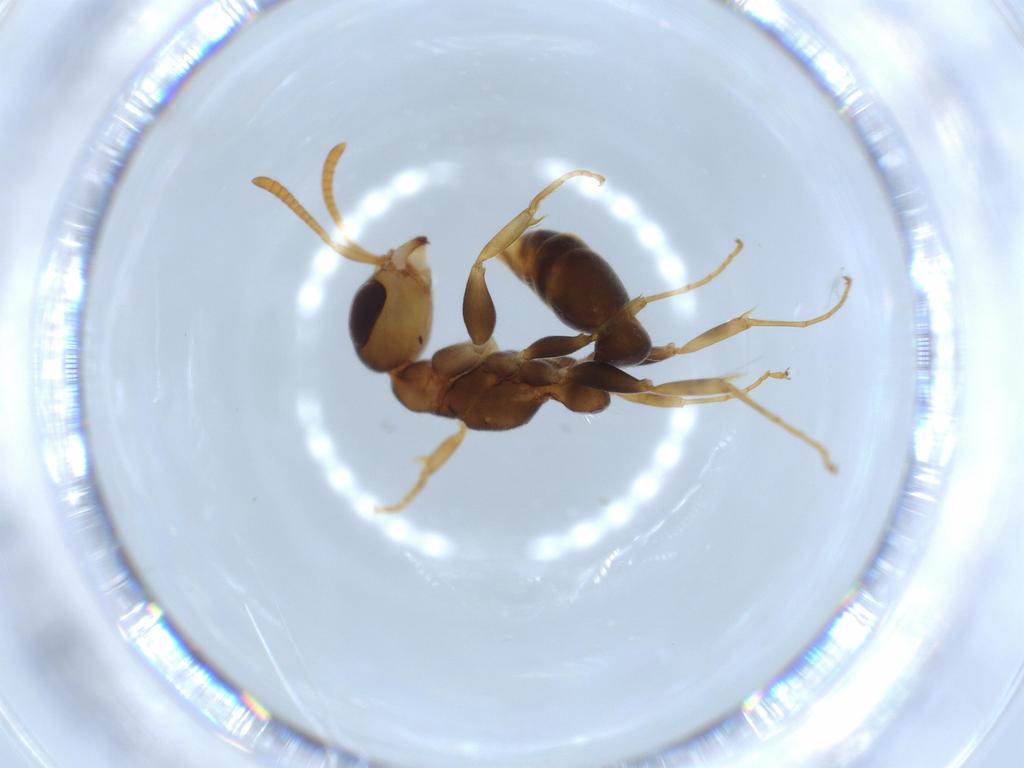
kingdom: Animalia
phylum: Arthropoda
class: Insecta
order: Hymenoptera
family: Formicidae
